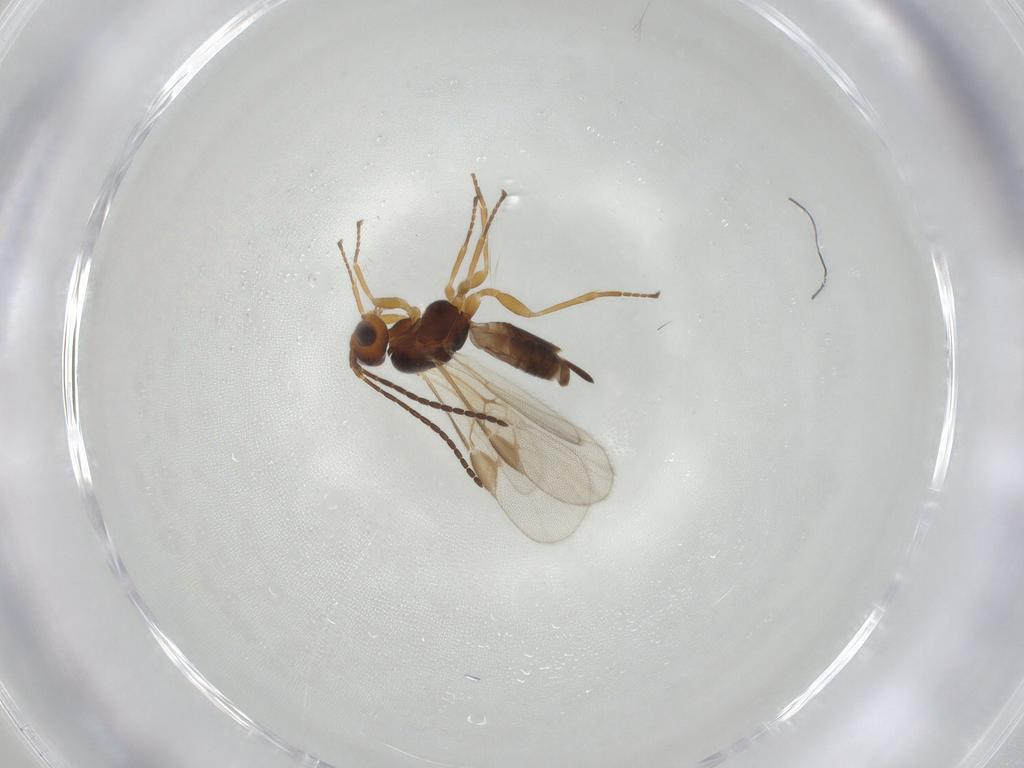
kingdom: Animalia
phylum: Arthropoda
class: Insecta
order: Hymenoptera
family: Braconidae
